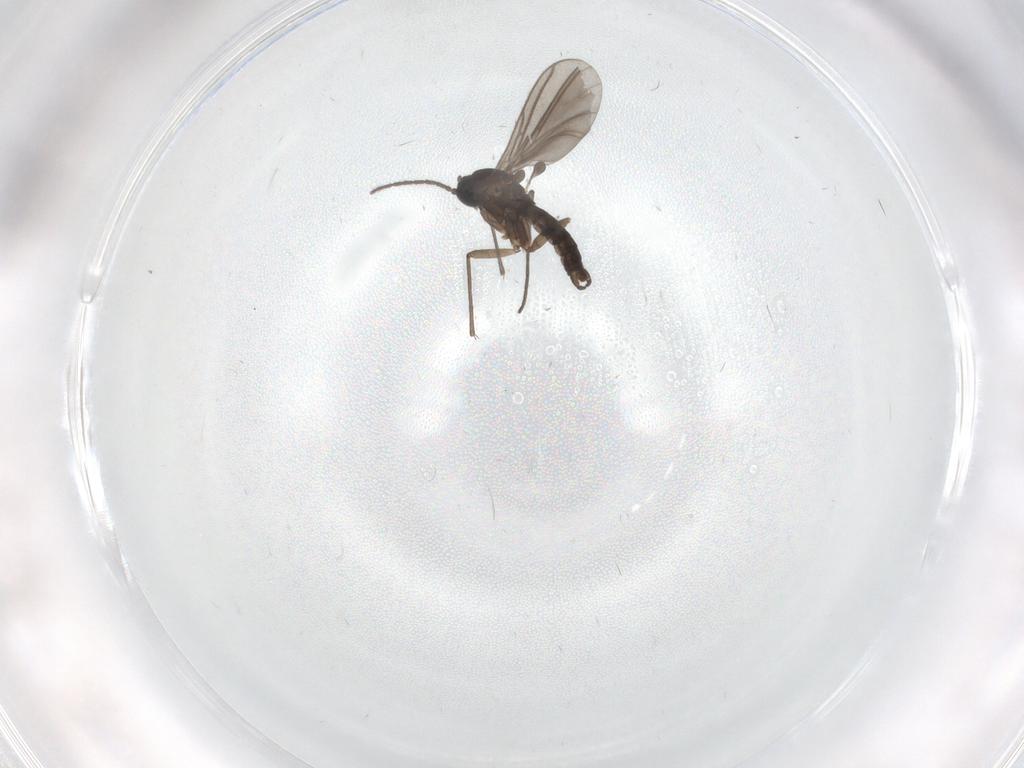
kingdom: Animalia
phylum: Arthropoda
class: Insecta
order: Diptera
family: Sciaridae
